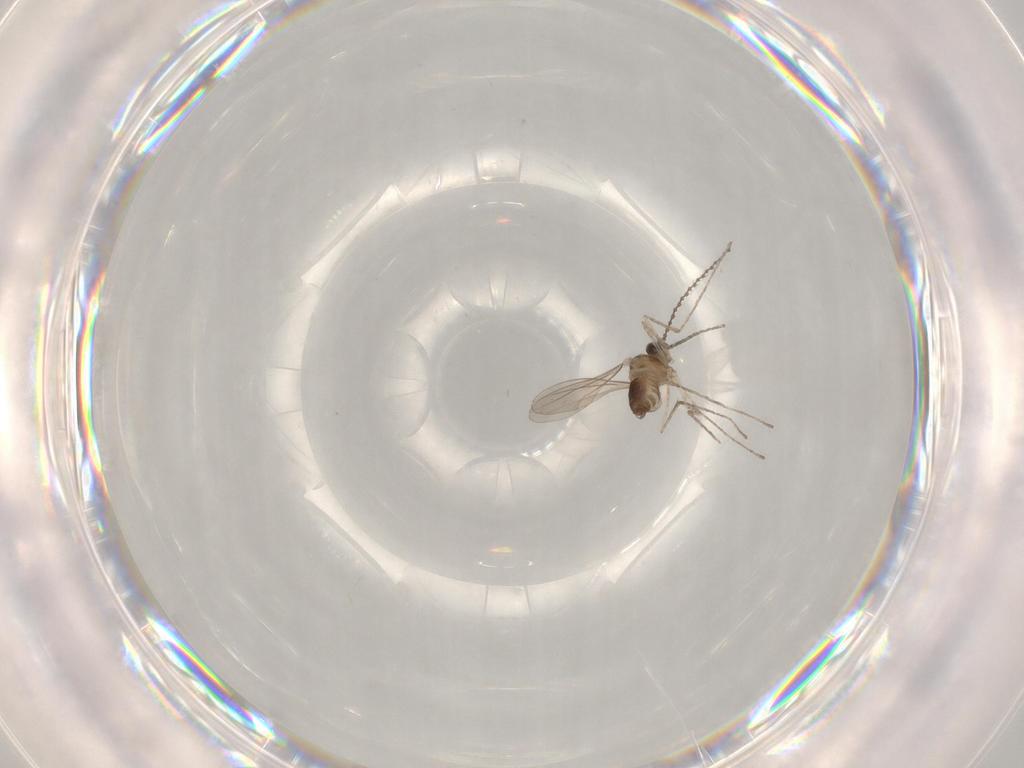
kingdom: Animalia
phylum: Arthropoda
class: Insecta
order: Diptera
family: Cecidomyiidae
